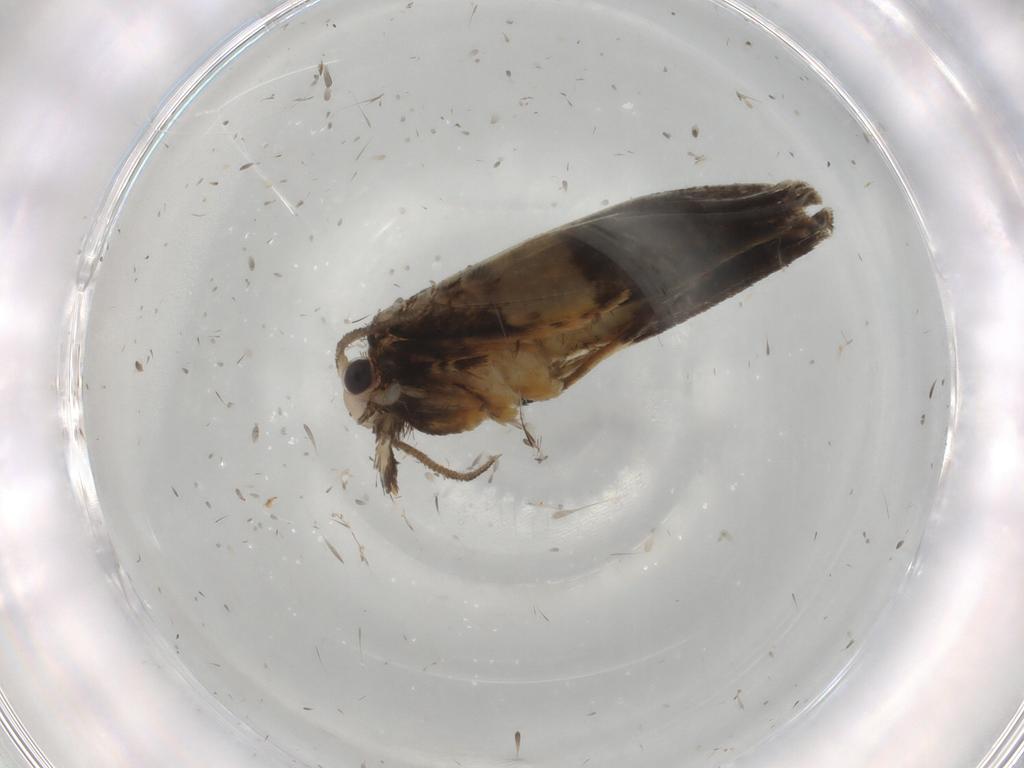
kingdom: Animalia
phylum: Arthropoda
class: Insecta
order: Lepidoptera
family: Psychidae
